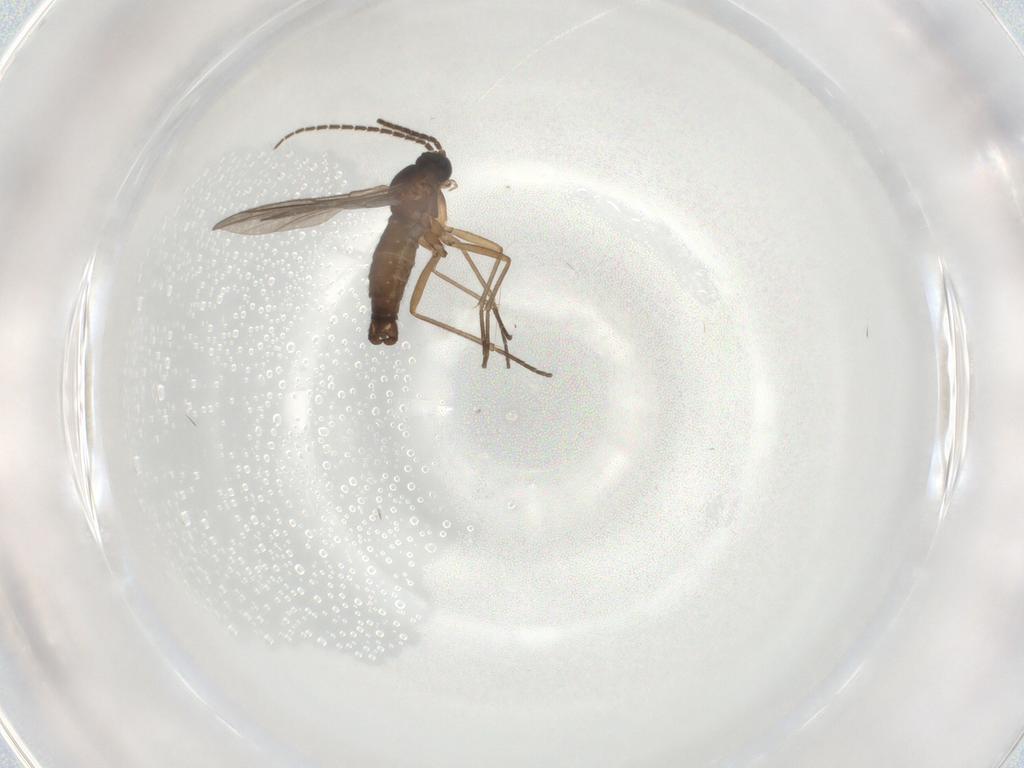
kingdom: Animalia
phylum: Arthropoda
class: Insecta
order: Diptera
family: Sciaridae
